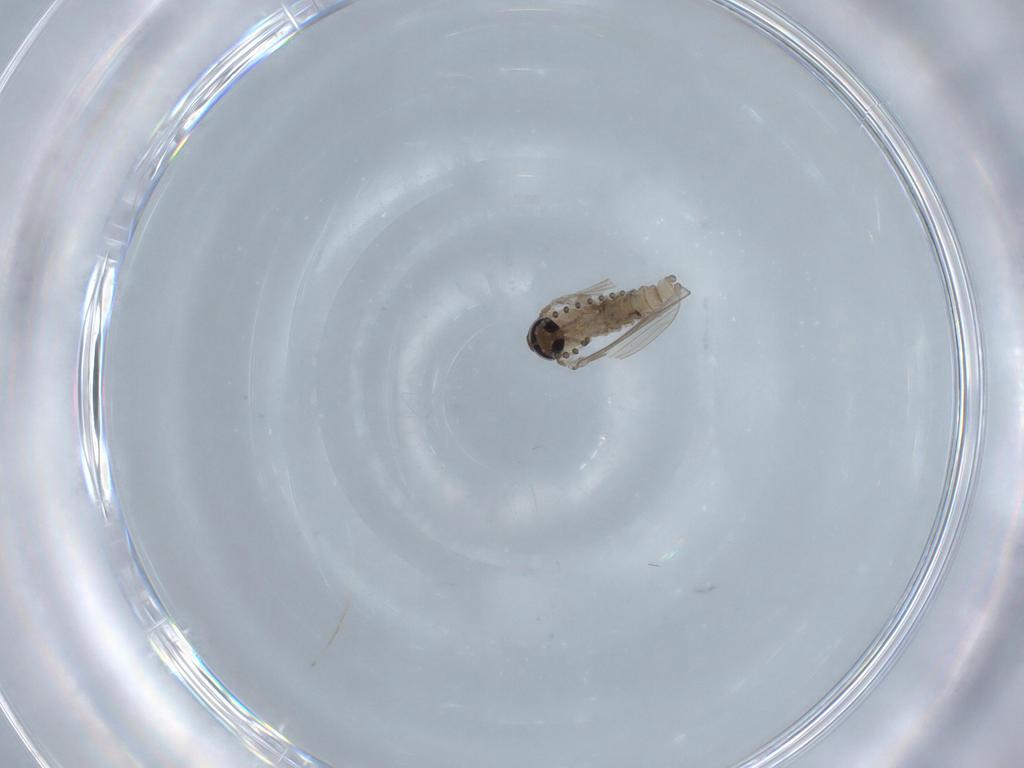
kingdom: Animalia
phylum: Arthropoda
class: Insecta
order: Diptera
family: Psychodidae
